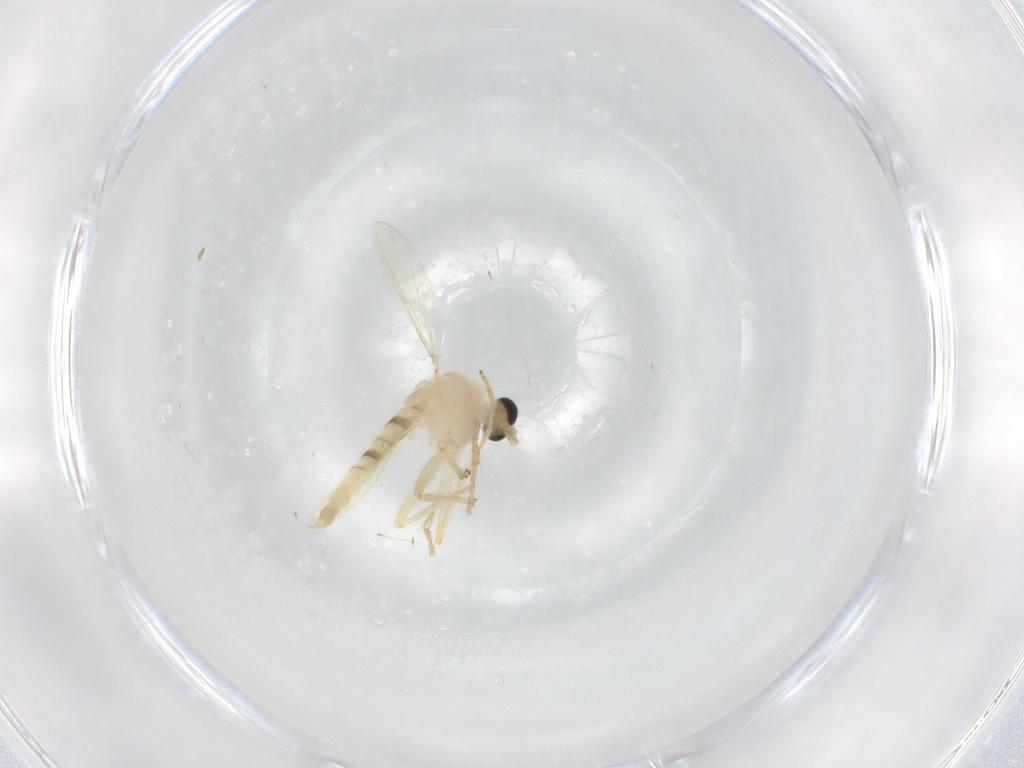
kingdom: Animalia
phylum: Arthropoda
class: Insecta
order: Diptera
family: Chironomidae
